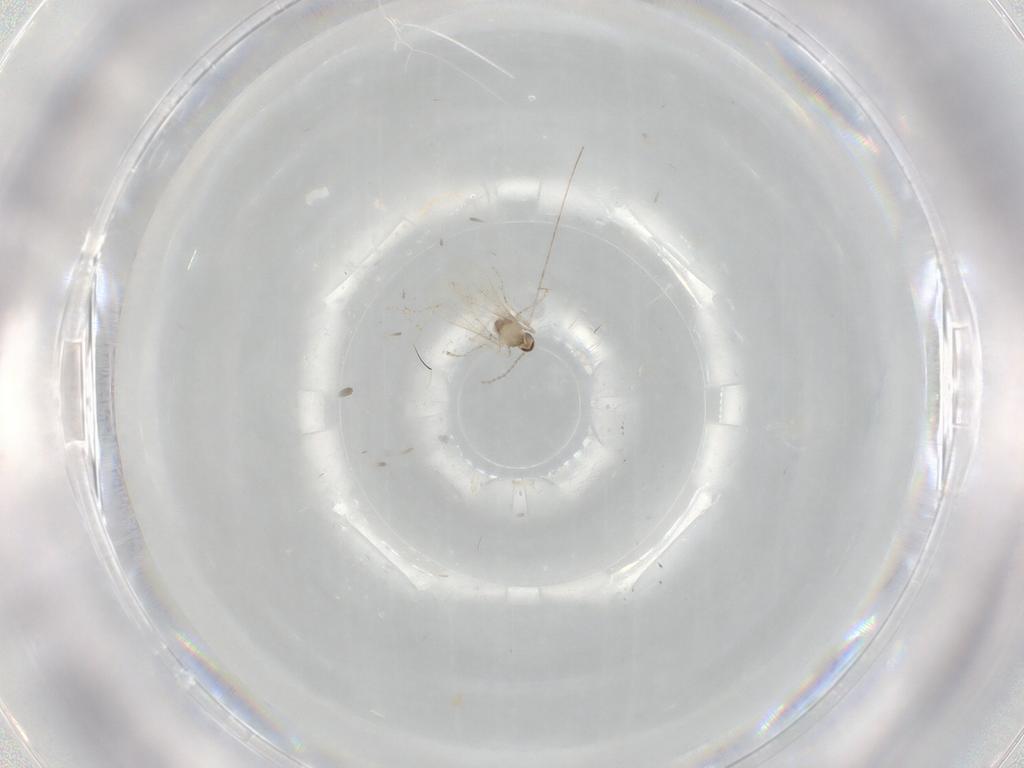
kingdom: Animalia
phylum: Arthropoda
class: Insecta
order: Diptera
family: Cecidomyiidae
